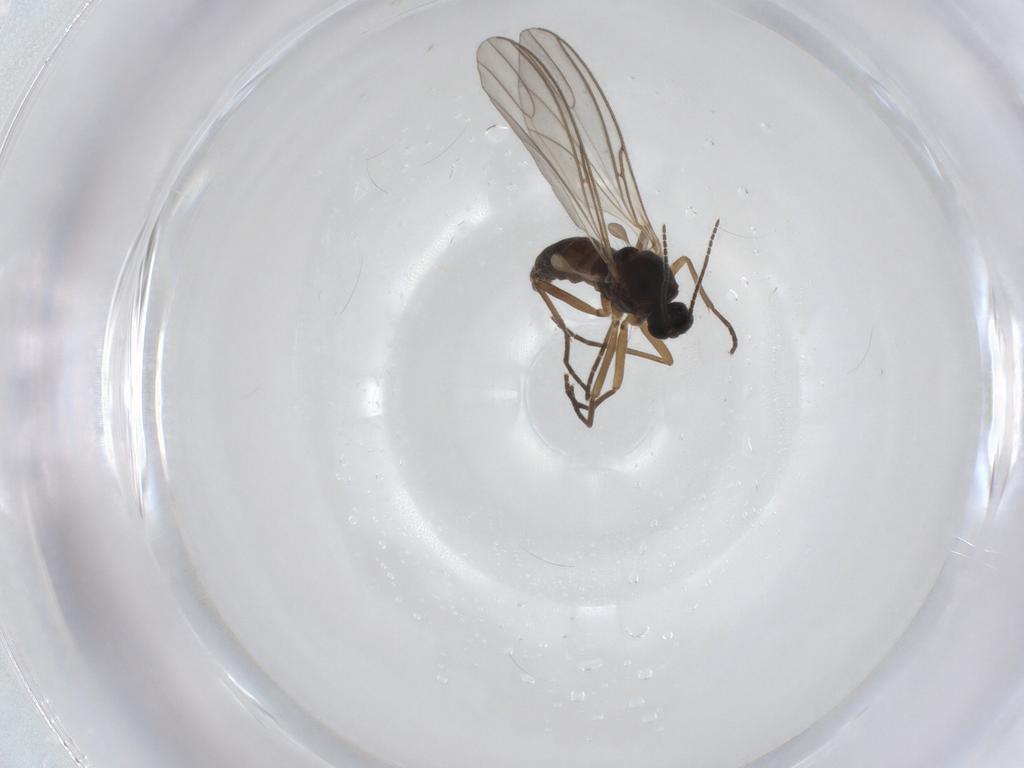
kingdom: Animalia
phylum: Arthropoda
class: Insecta
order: Diptera
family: Sciaridae
